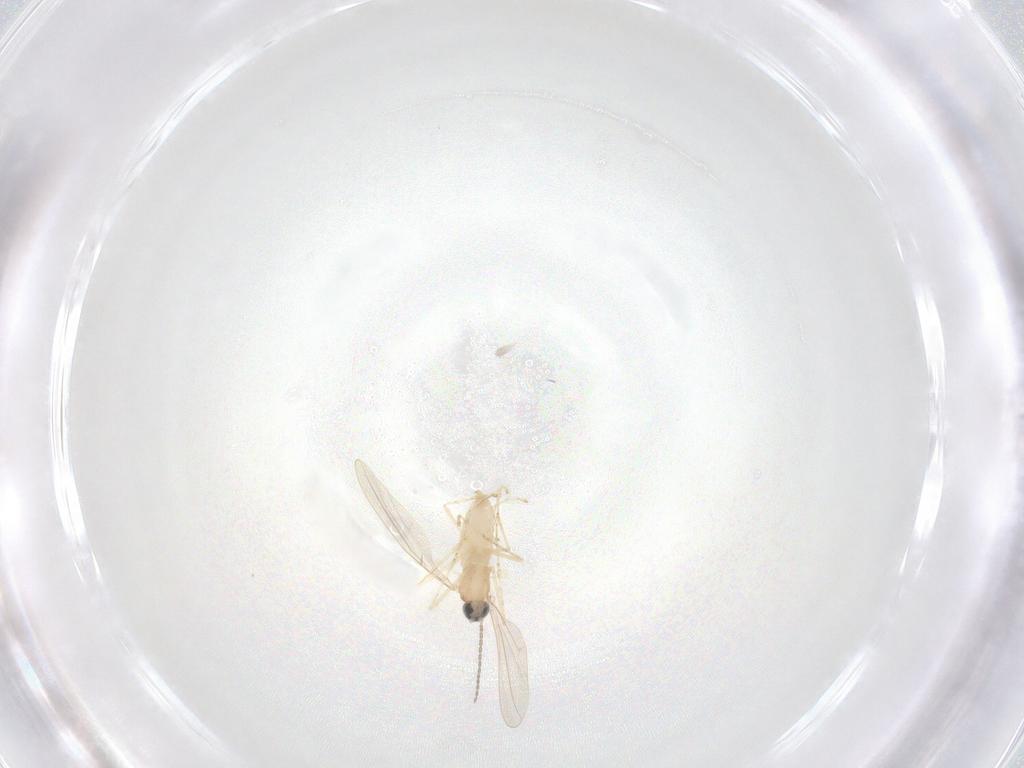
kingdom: Animalia
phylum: Arthropoda
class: Insecta
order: Diptera
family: Cecidomyiidae
